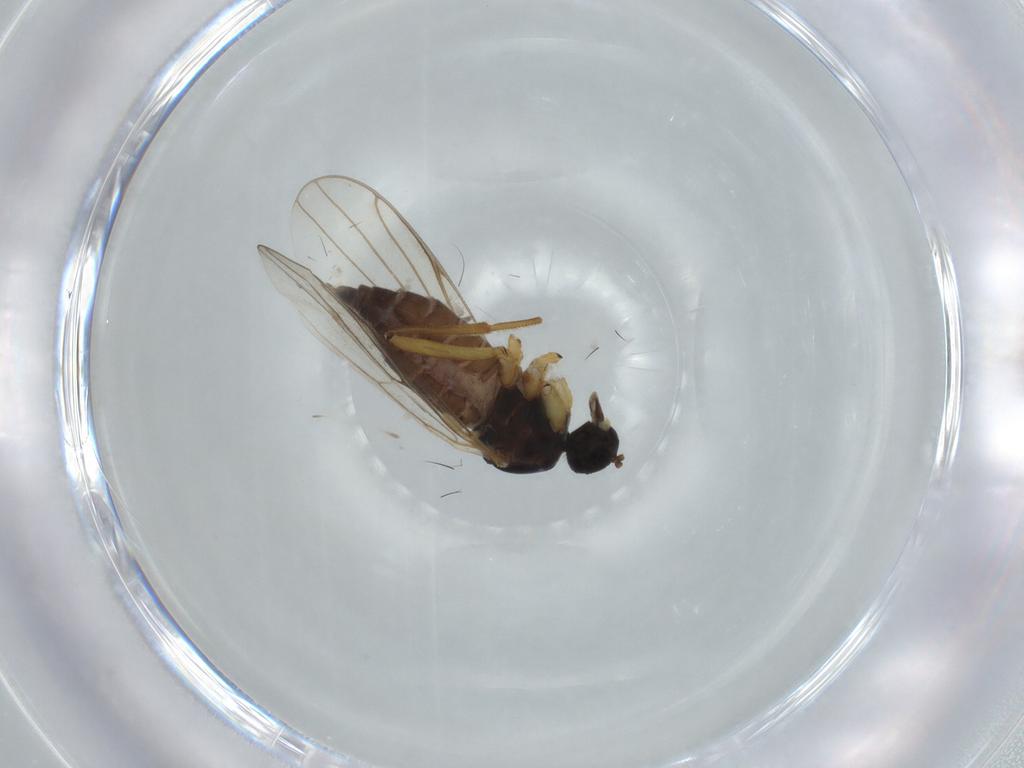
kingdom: Animalia
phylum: Arthropoda
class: Insecta
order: Diptera
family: Hybotidae
